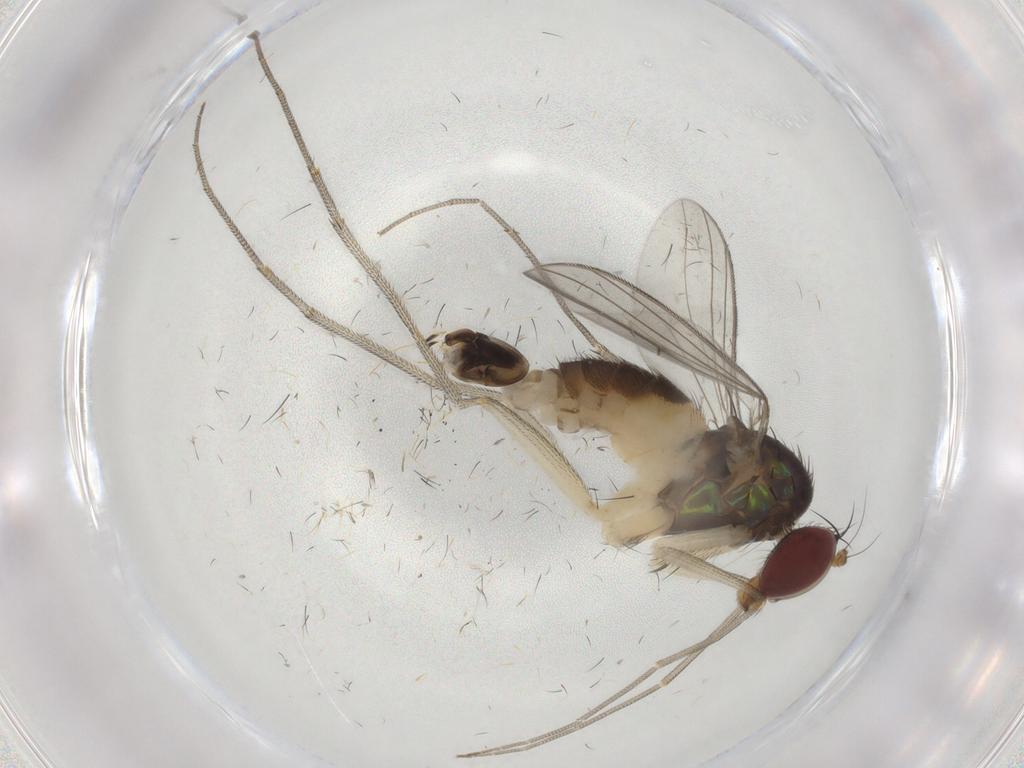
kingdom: Animalia
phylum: Arthropoda
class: Insecta
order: Diptera
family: Dolichopodidae
